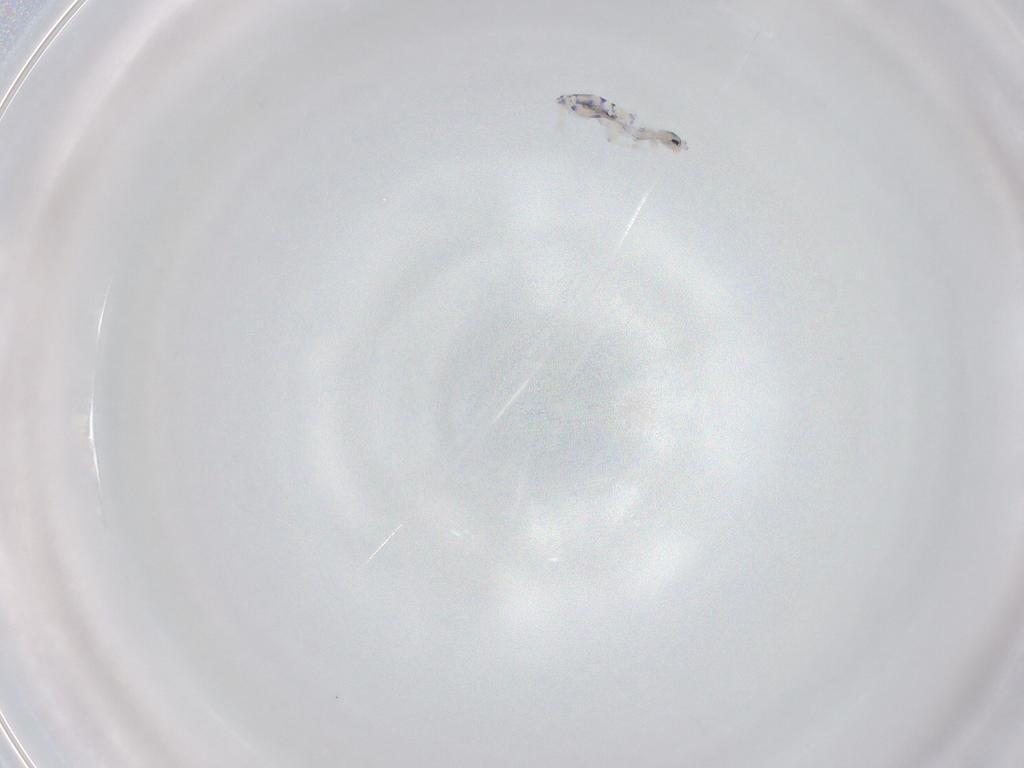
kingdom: Animalia
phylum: Arthropoda
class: Collembola
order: Entomobryomorpha
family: Entomobryidae
